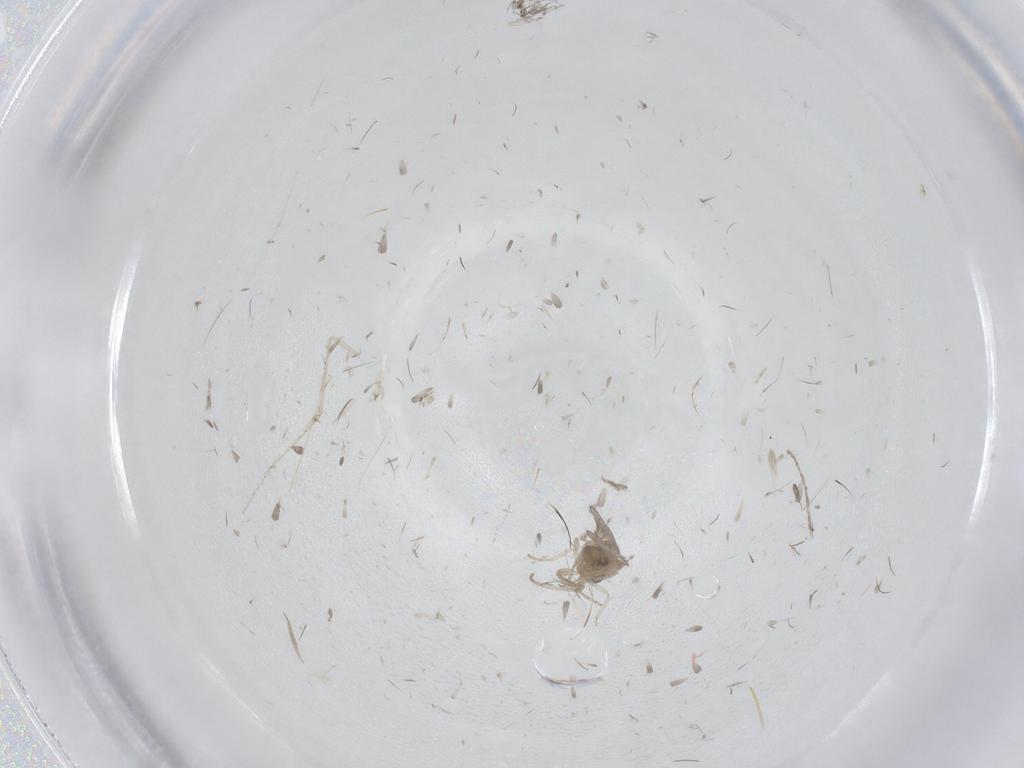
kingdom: Animalia
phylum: Arthropoda
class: Insecta
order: Diptera
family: Cecidomyiidae
